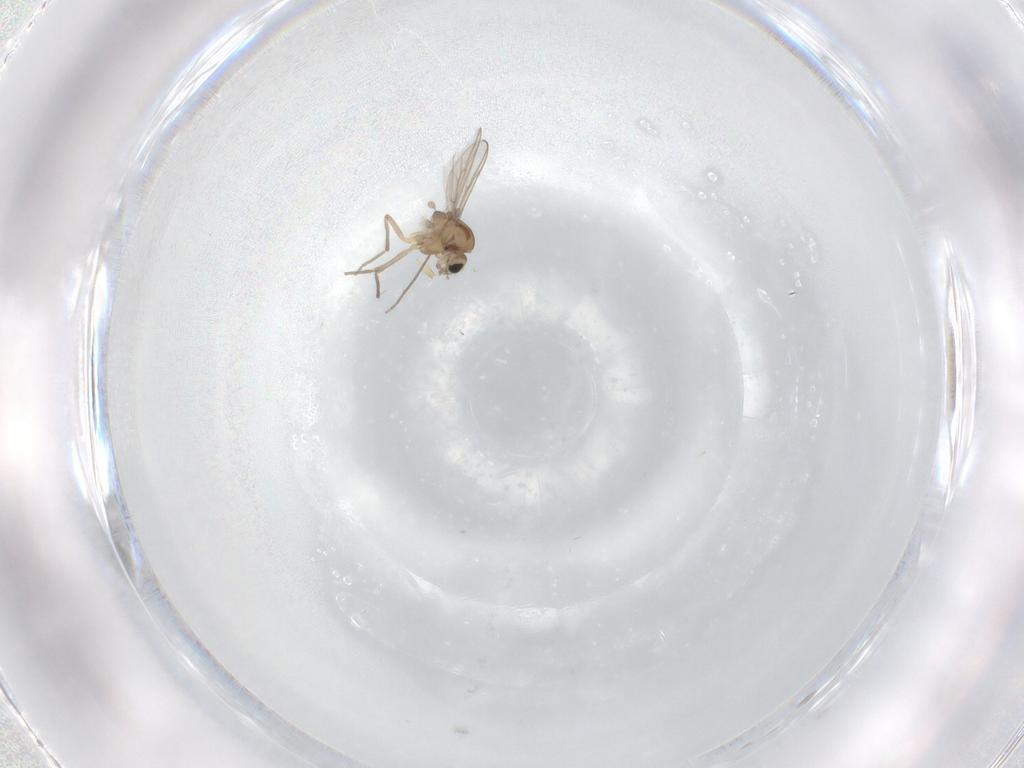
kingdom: Animalia
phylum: Arthropoda
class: Insecta
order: Diptera
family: Chironomidae
